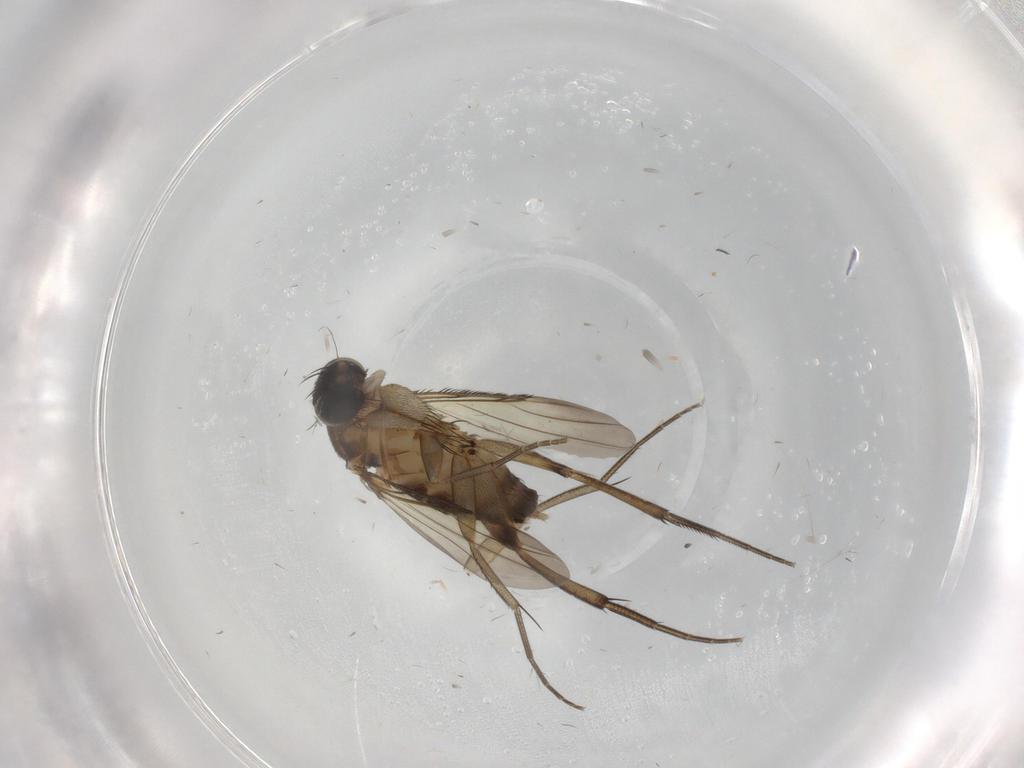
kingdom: Animalia
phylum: Arthropoda
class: Insecta
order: Diptera
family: Phoridae
